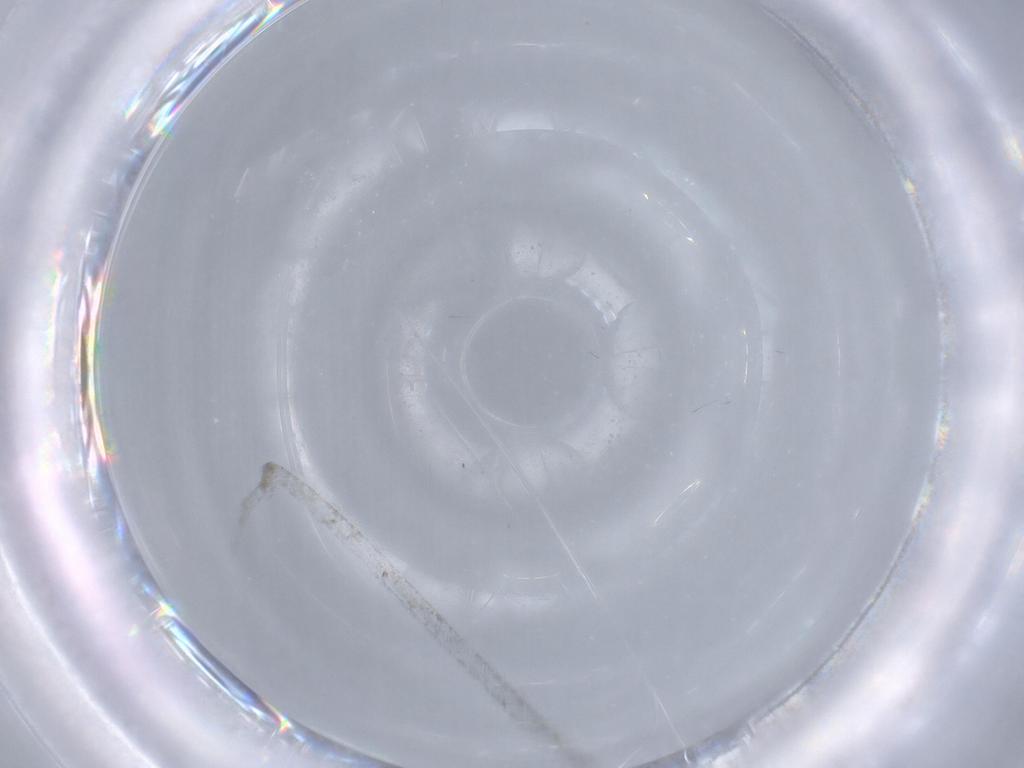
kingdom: Animalia
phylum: Arthropoda
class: Insecta
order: Diptera
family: Cecidomyiidae
